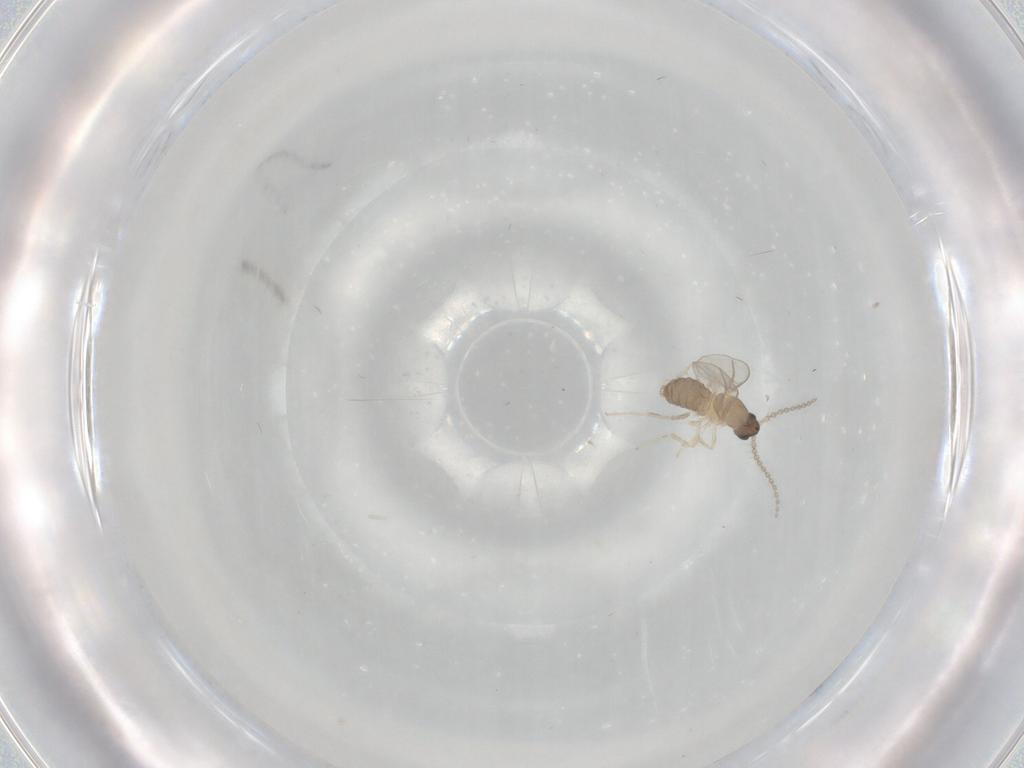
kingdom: Animalia
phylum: Arthropoda
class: Insecta
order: Diptera
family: Cecidomyiidae
